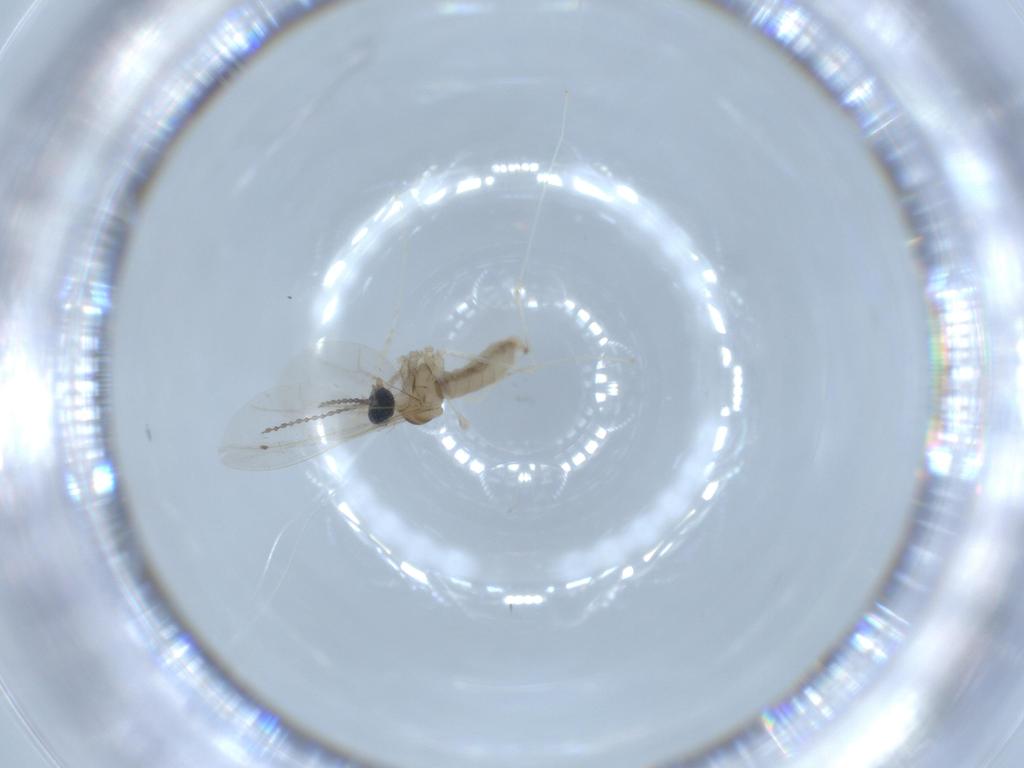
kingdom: Animalia
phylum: Arthropoda
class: Insecta
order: Diptera
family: Cecidomyiidae
